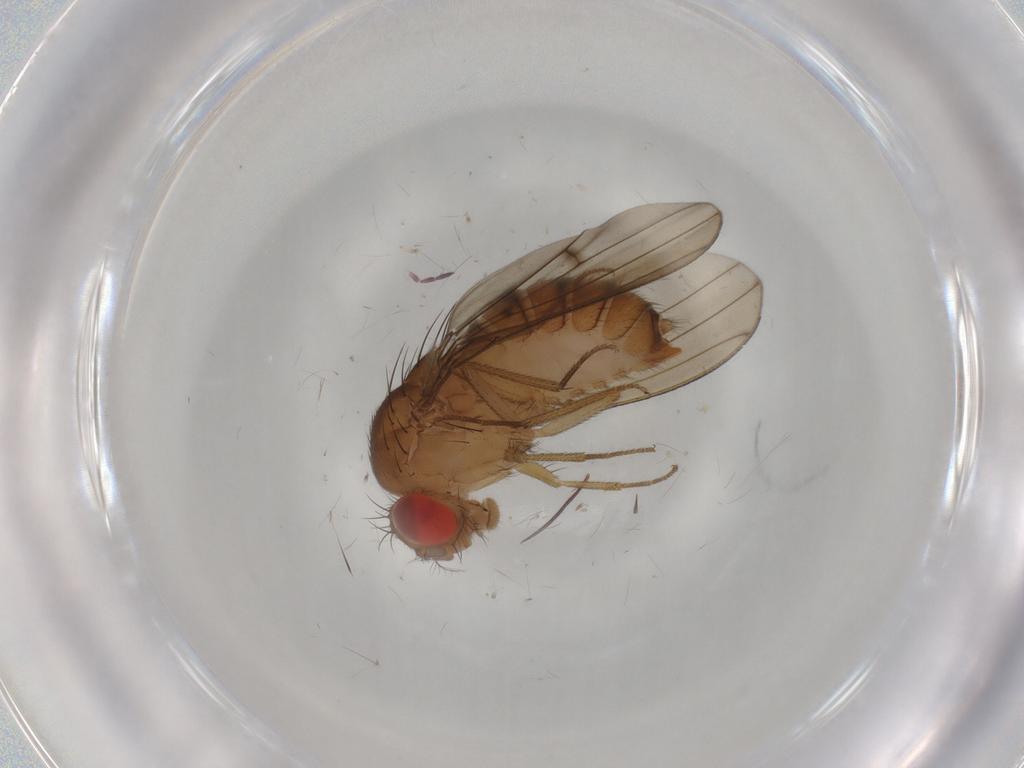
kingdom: Animalia
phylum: Arthropoda
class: Insecta
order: Diptera
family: Drosophilidae
